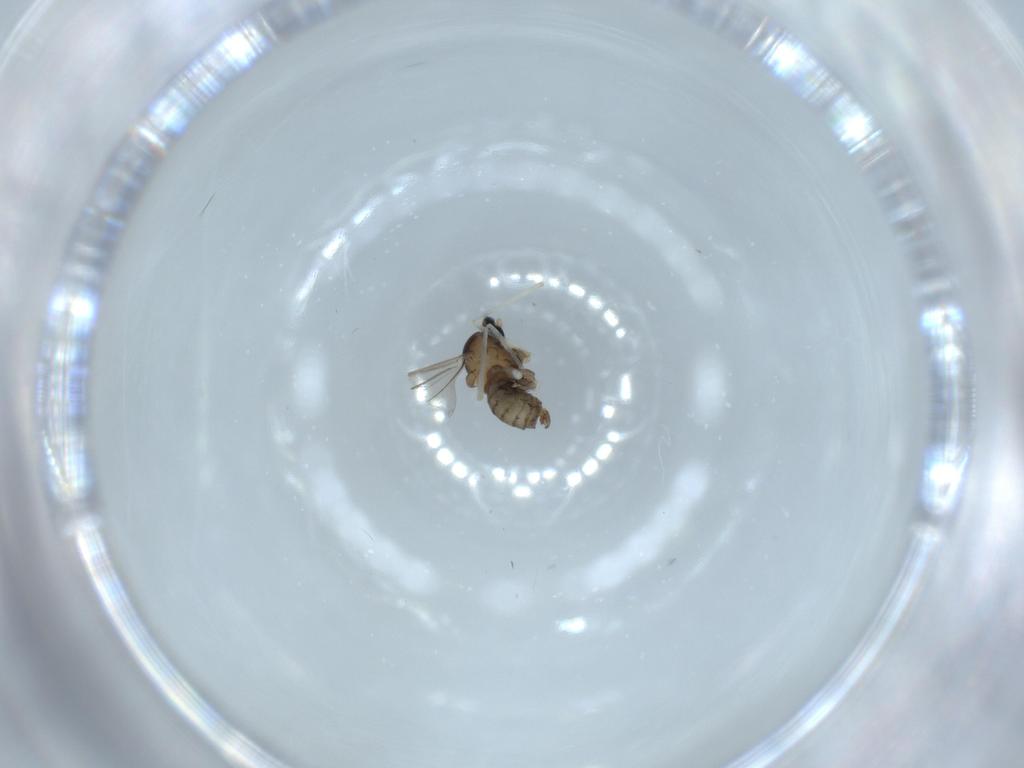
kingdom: Animalia
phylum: Arthropoda
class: Insecta
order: Diptera
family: Cecidomyiidae
